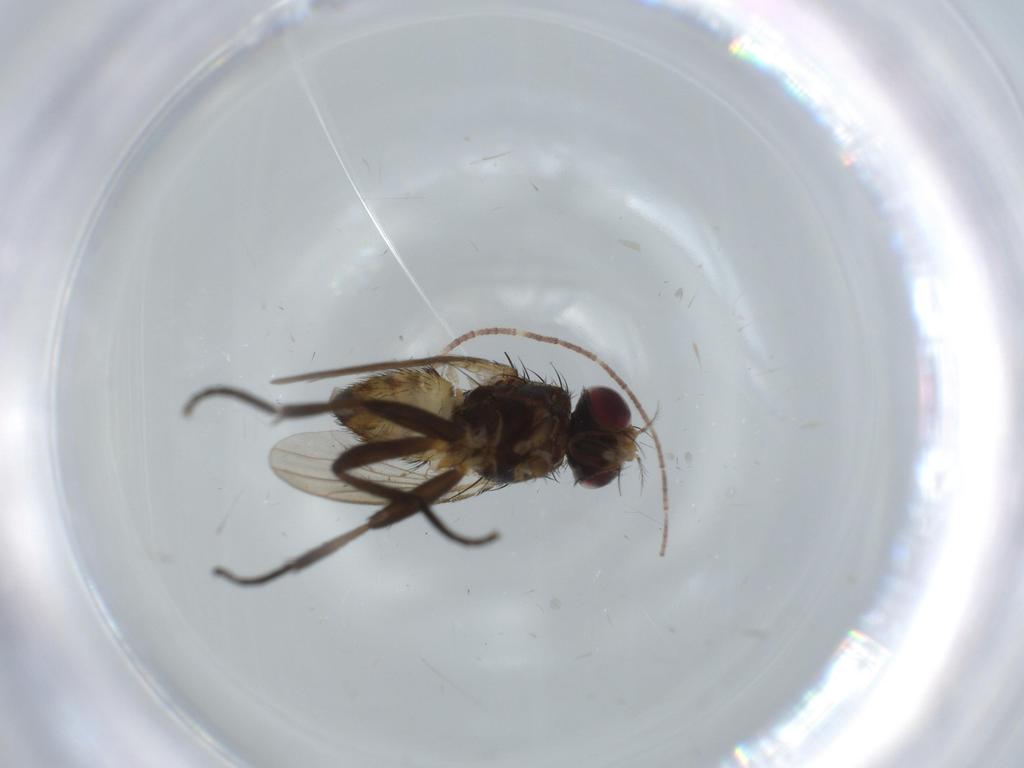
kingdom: Animalia
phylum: Arthropoda
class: Insecta
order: Diptera
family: Anthomyiidae
